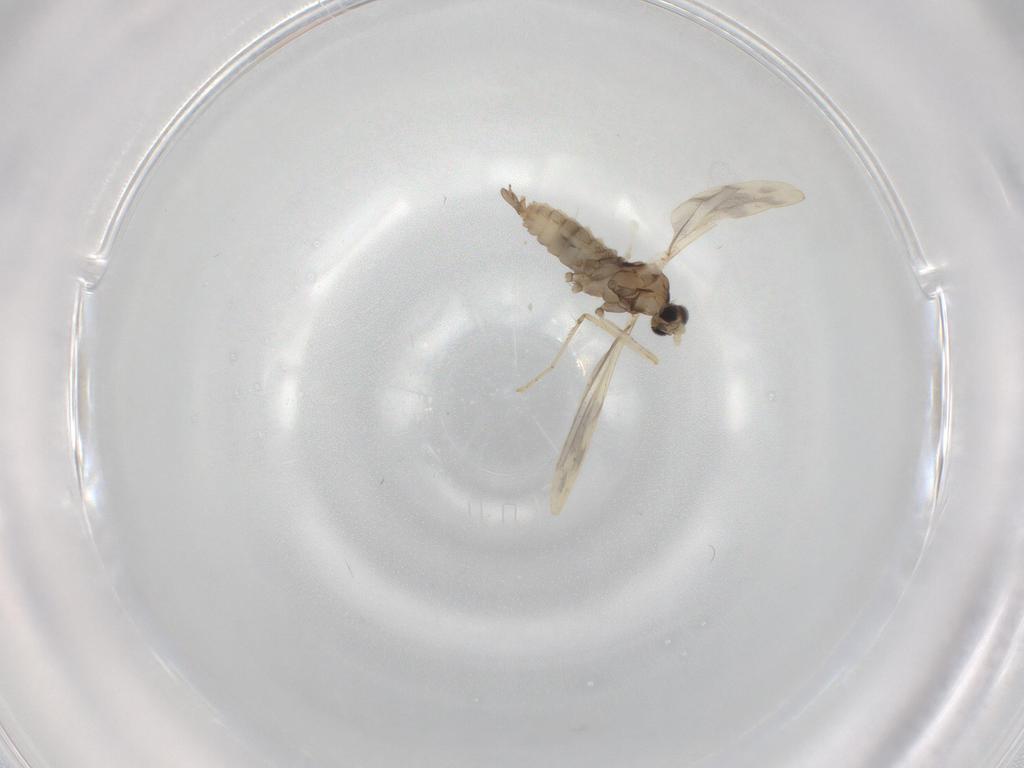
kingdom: Animalia
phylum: Arthropoda
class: Insecta
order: Diptera
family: Cecidomyiidae
